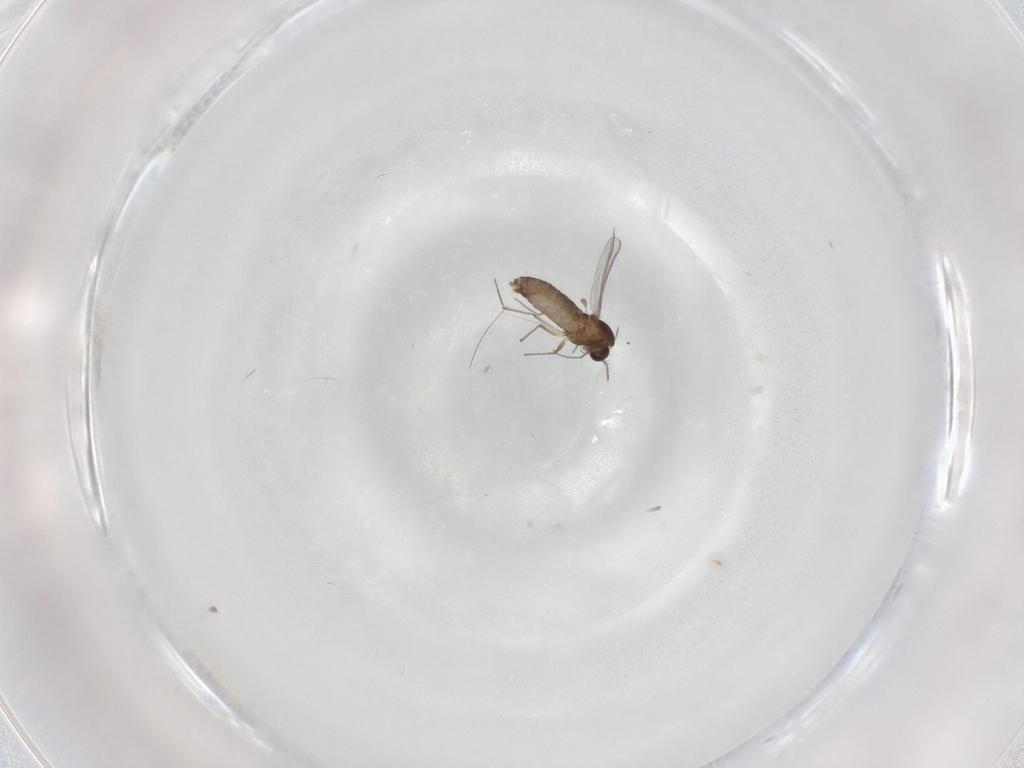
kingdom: Animalia
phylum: Arthropoda
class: Insecta
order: Diptera
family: Chironomidae
